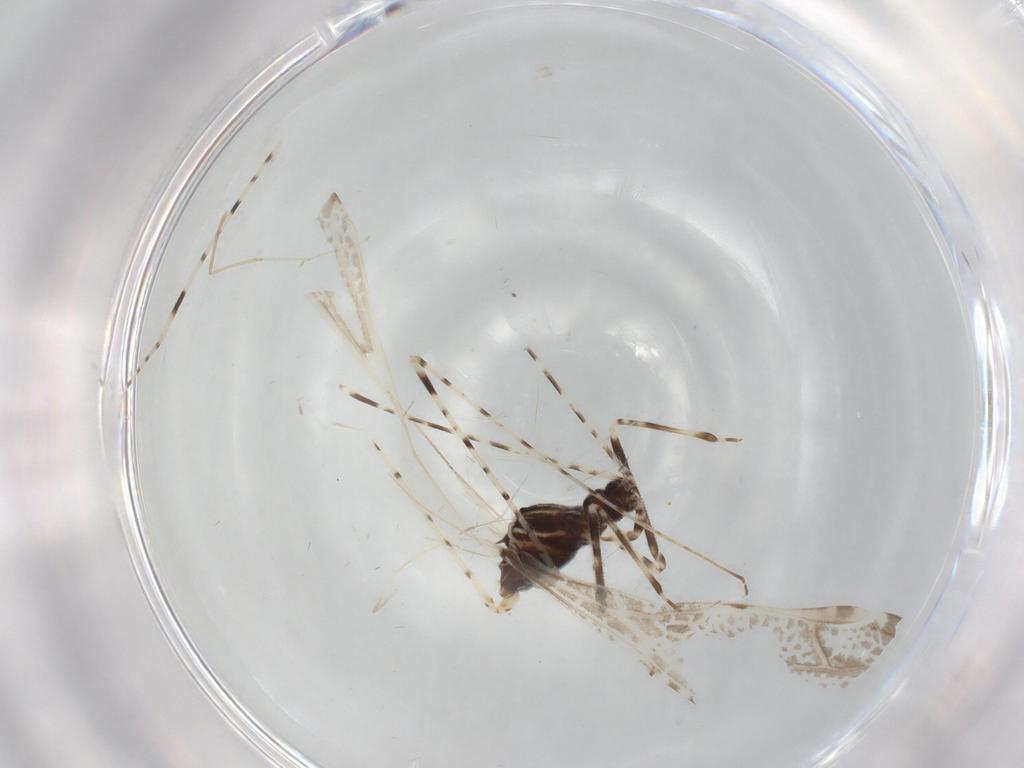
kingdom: Animalia
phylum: Arthropoda
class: Insecta
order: Hemiptera
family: Reduviidae
